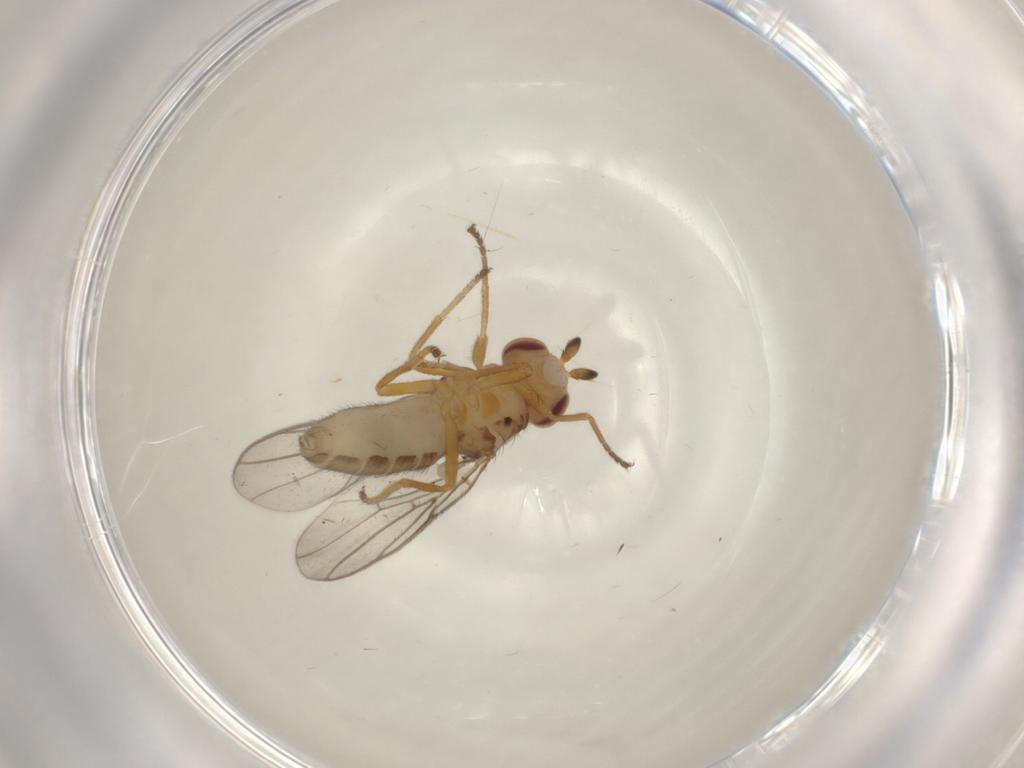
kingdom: Animalia
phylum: Arthropoda
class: Insecta
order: Diptera
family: Chloropidae
